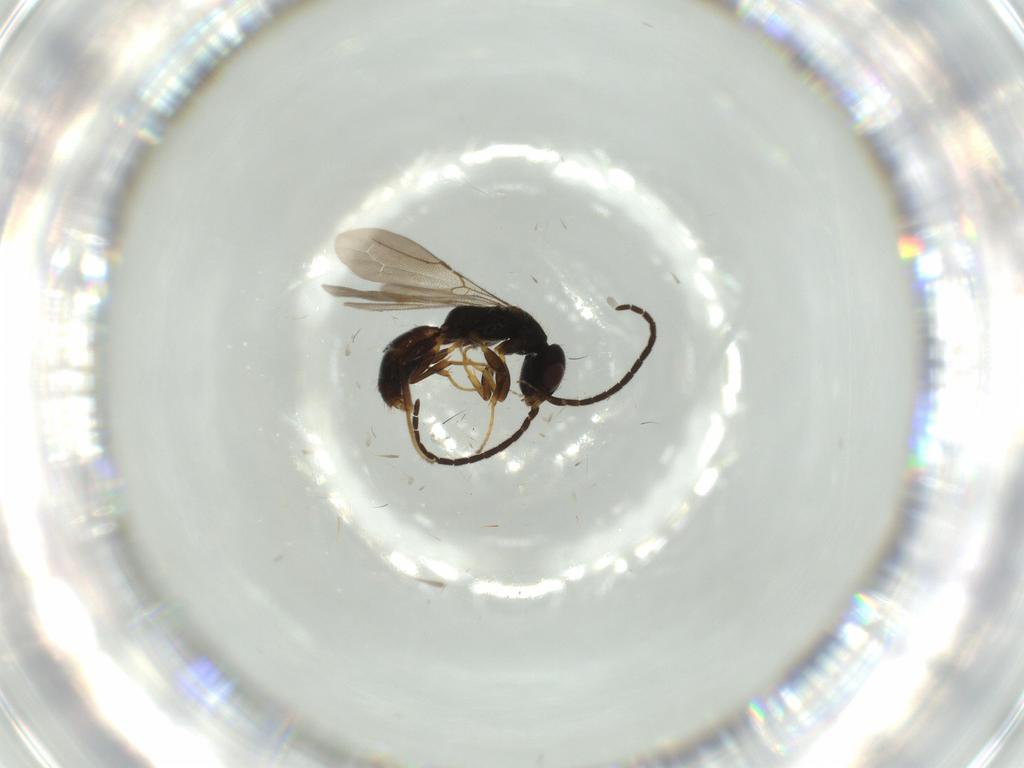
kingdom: Animalia
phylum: Arthropoda
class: Insecta
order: Hymenoptera
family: Bethylidae
